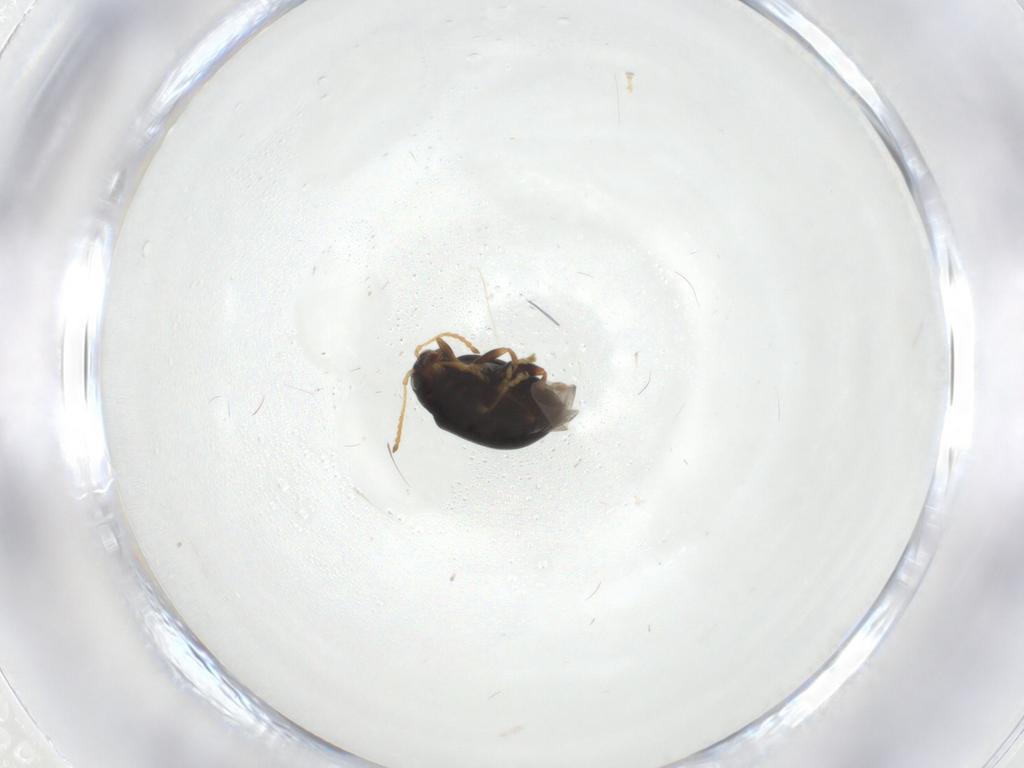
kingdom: Animalia
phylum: Arthropoda
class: Insecta
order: Coleoptera
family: Chrysomelidae
